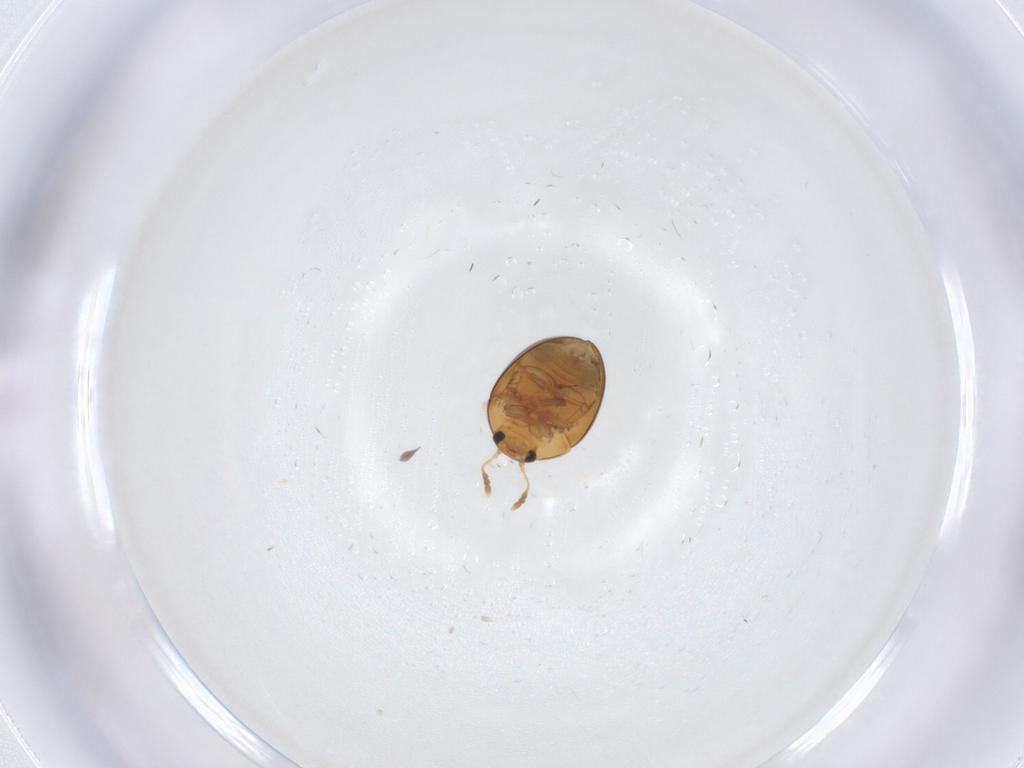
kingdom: Animalia
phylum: Arthropoda
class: Insecta
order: Coleoptera
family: Phalacridae
